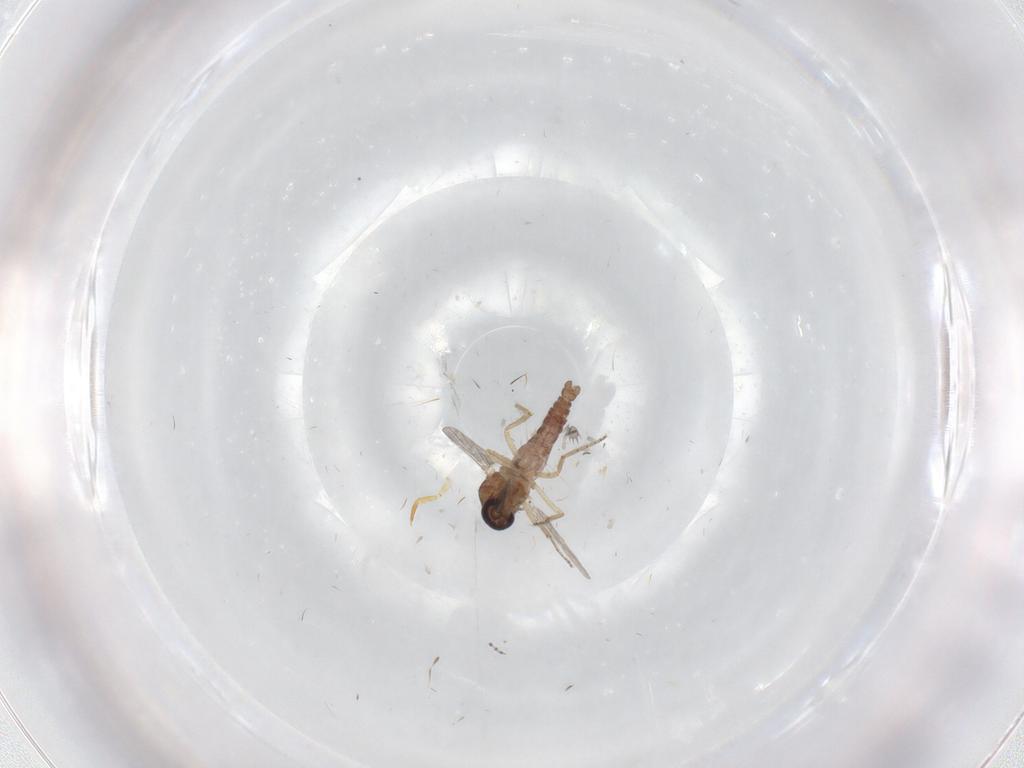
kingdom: Animalia
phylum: Arthropoda
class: Insecta
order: Diptera
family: Ceratopogonidae
